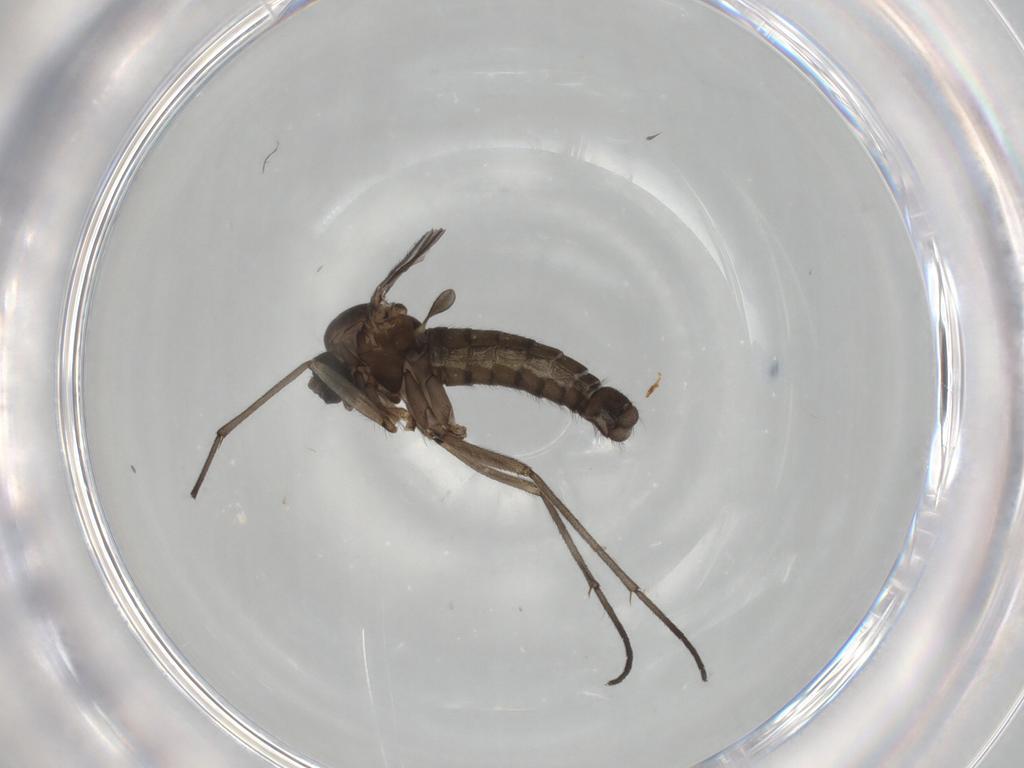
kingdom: Animalia
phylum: Arthropoda
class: Insecta
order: Diptera
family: Sciaridae
